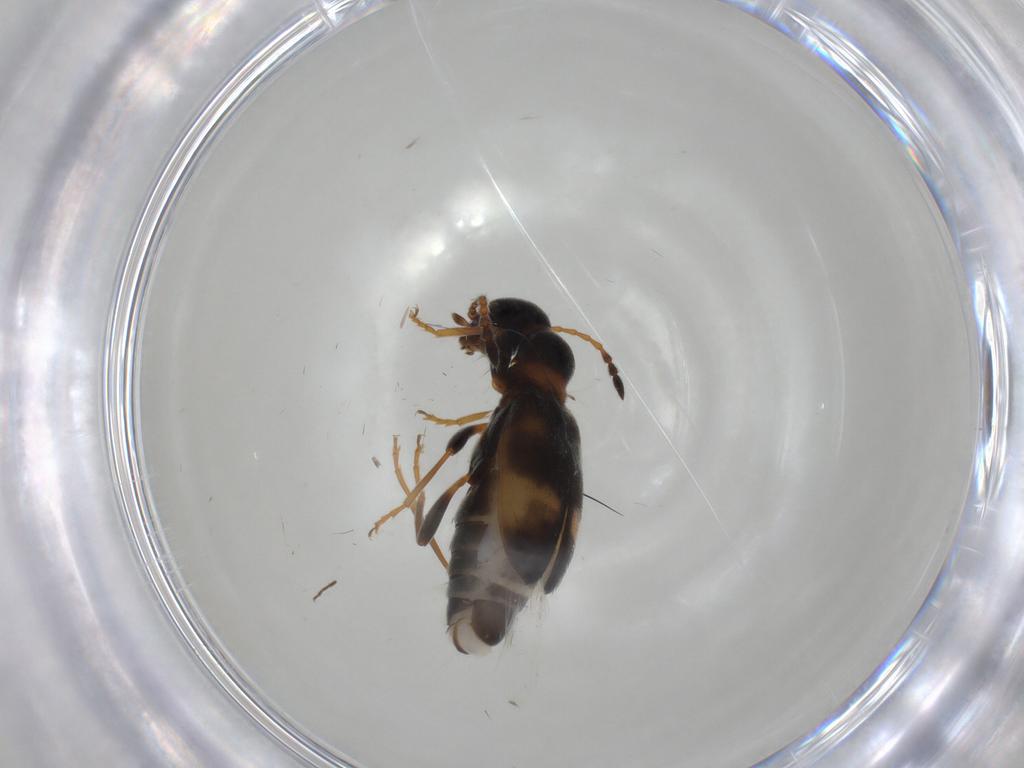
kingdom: Animalia
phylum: Arthropoda
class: Insecta
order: Coleoptera
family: Anthicidae
